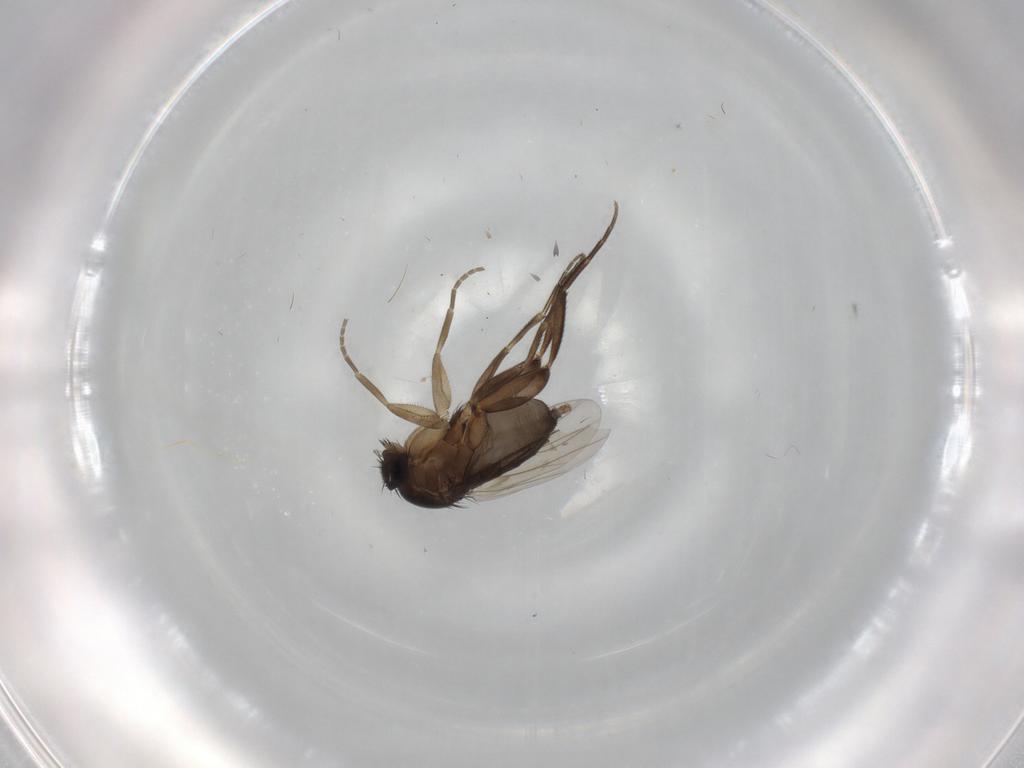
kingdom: Animalia
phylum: Arthropoda
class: Insecta
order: Diptera
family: Phoridae
